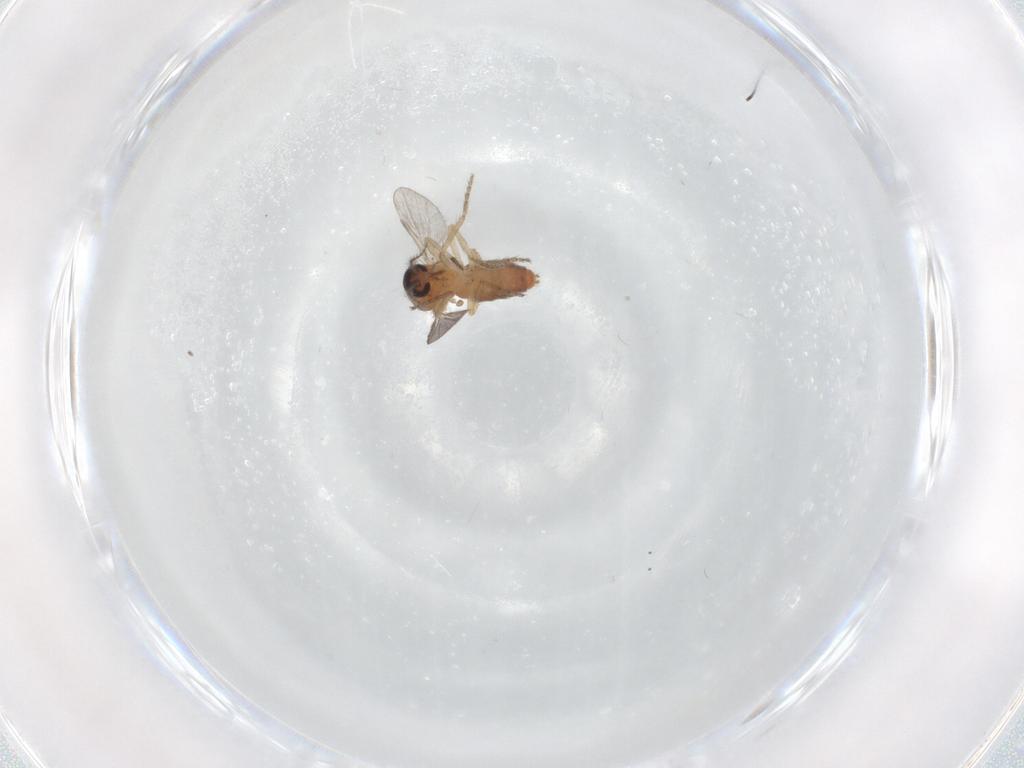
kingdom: Animalia
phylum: Arthropoda
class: Insecta
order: Diptera
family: Ceratopogonidae
